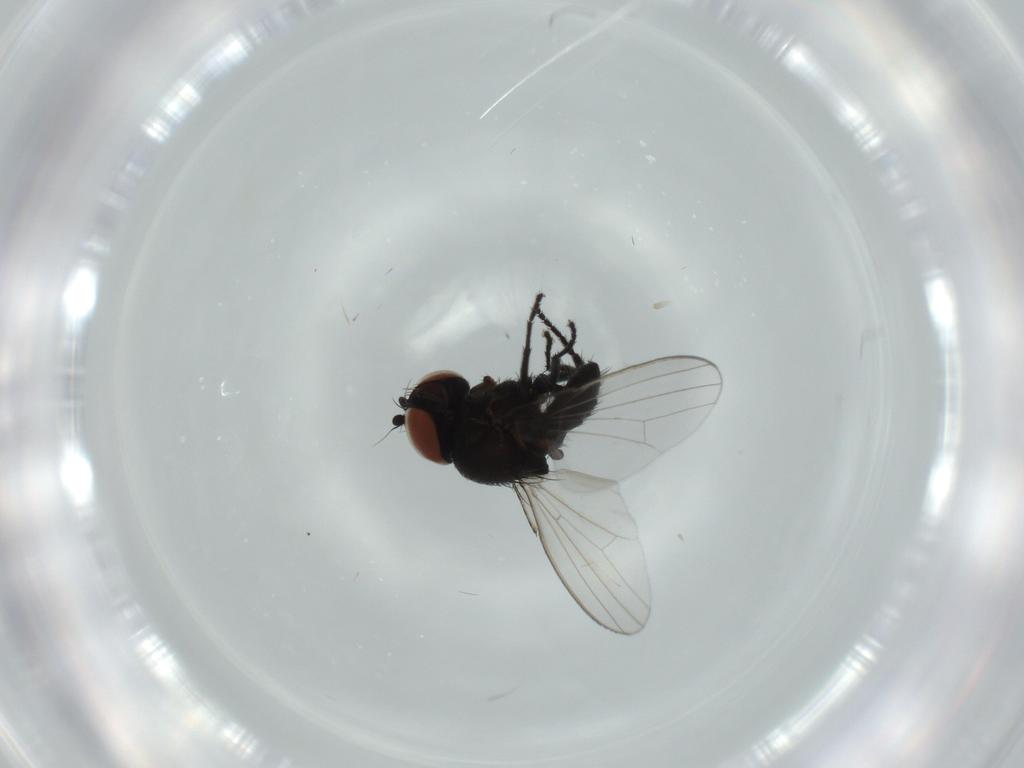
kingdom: Animalia
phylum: Arthropoda
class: Insecta
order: Diptera
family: Milichiidae
